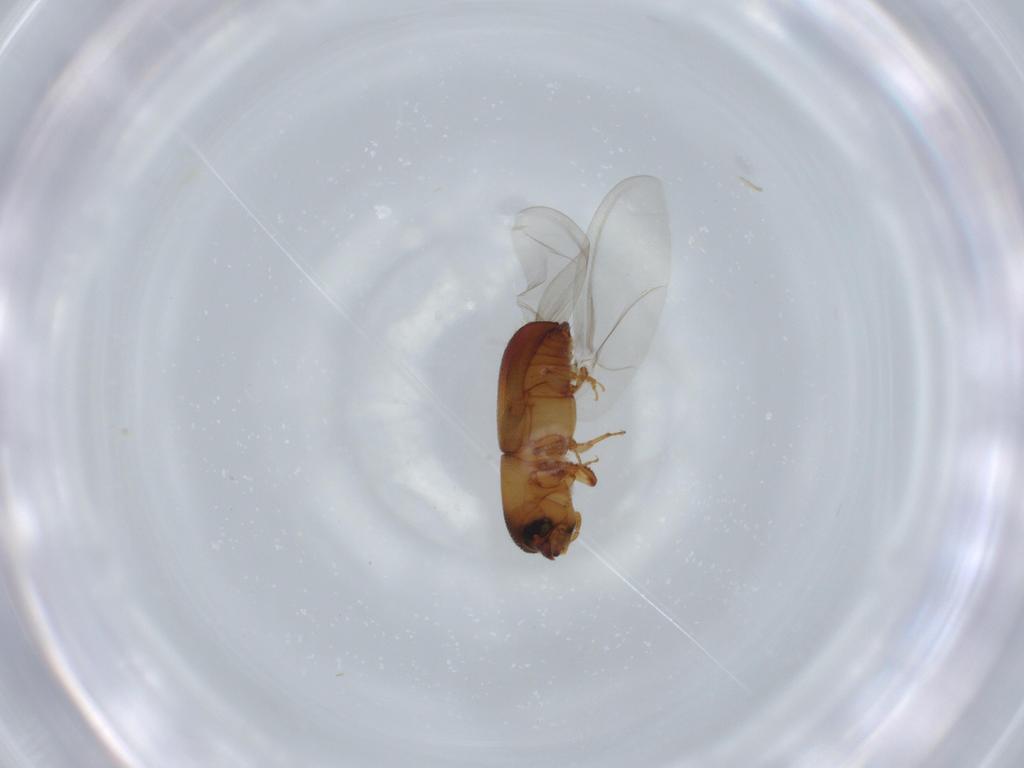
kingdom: Animalia
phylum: Arthropoda
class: Insecta
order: Coleoptera
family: Curculionidae
